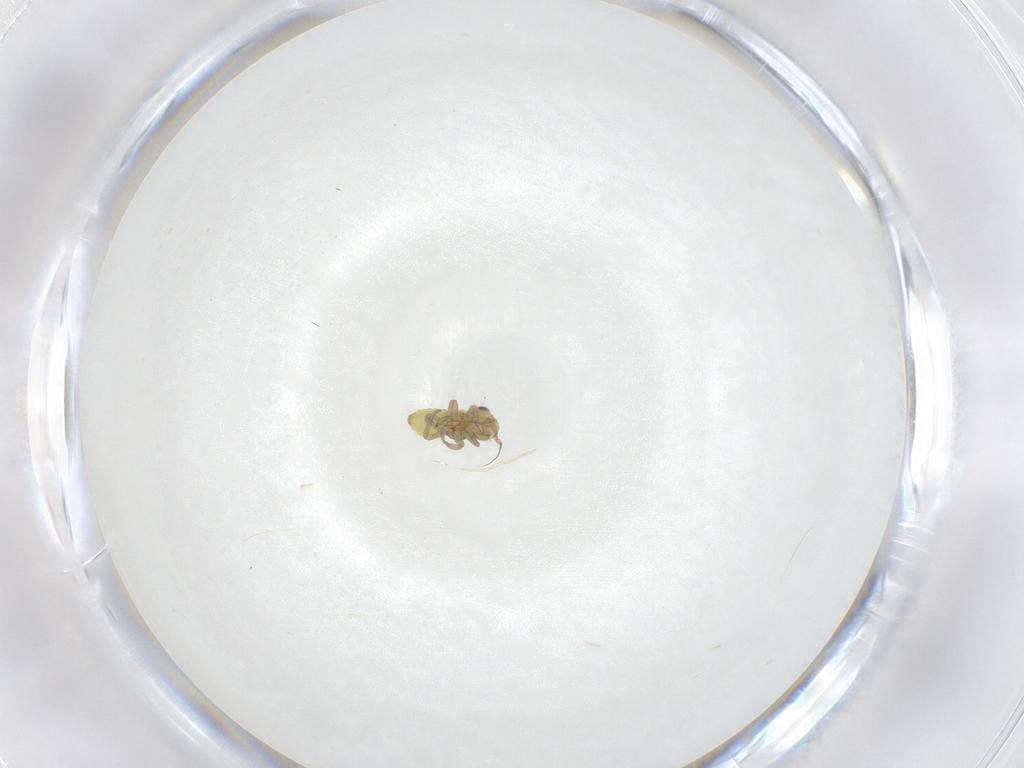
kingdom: Animalia
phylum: Arthropoda
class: Insecta
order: Hemiptera
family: Cicadellidae
